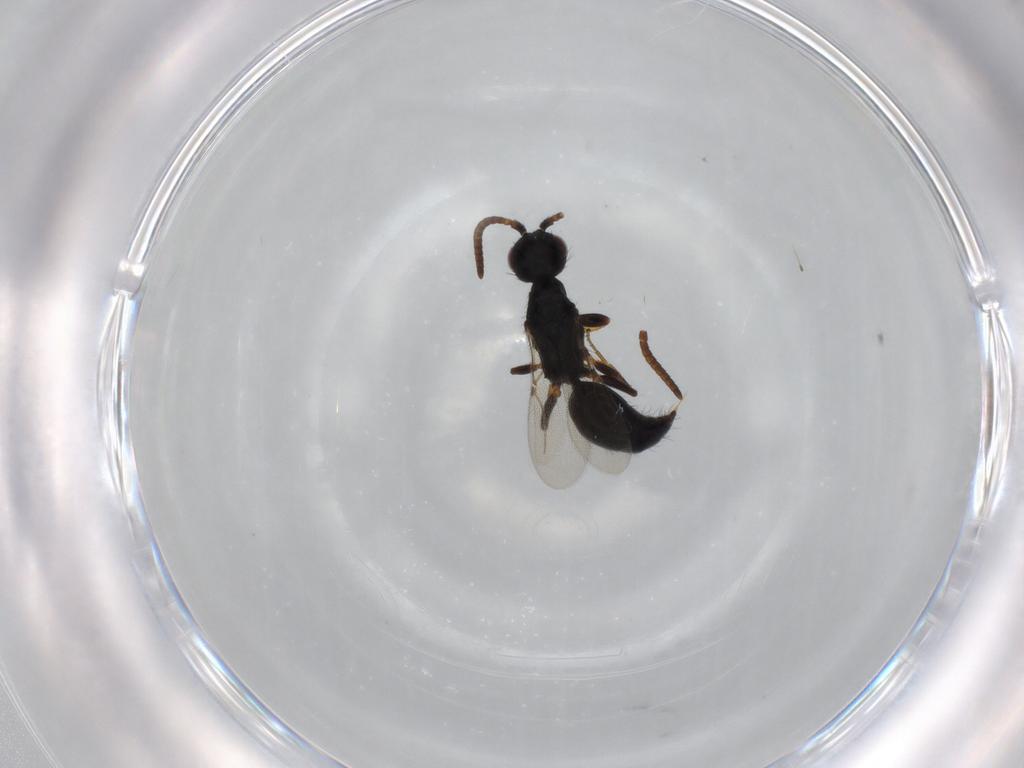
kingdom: Animalia
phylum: Arthropoda
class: Insecta
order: Hymenoptera
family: Bethylidae
